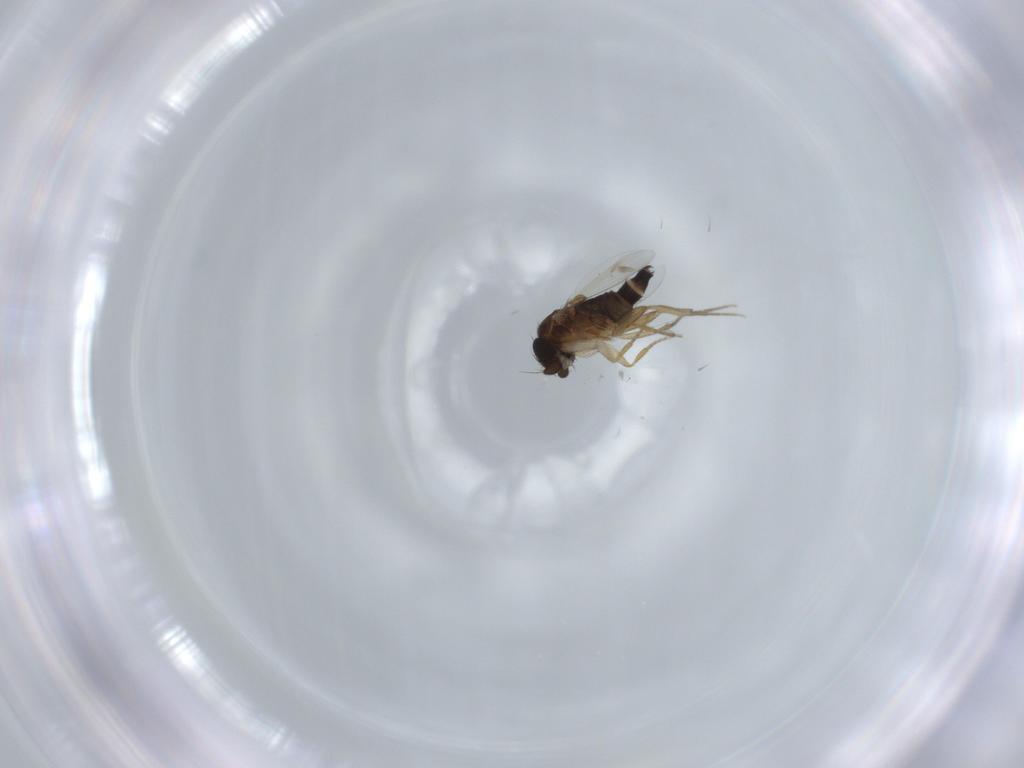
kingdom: Animalia
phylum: Arthropoda
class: Insecta
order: Diptera
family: Phoridae
